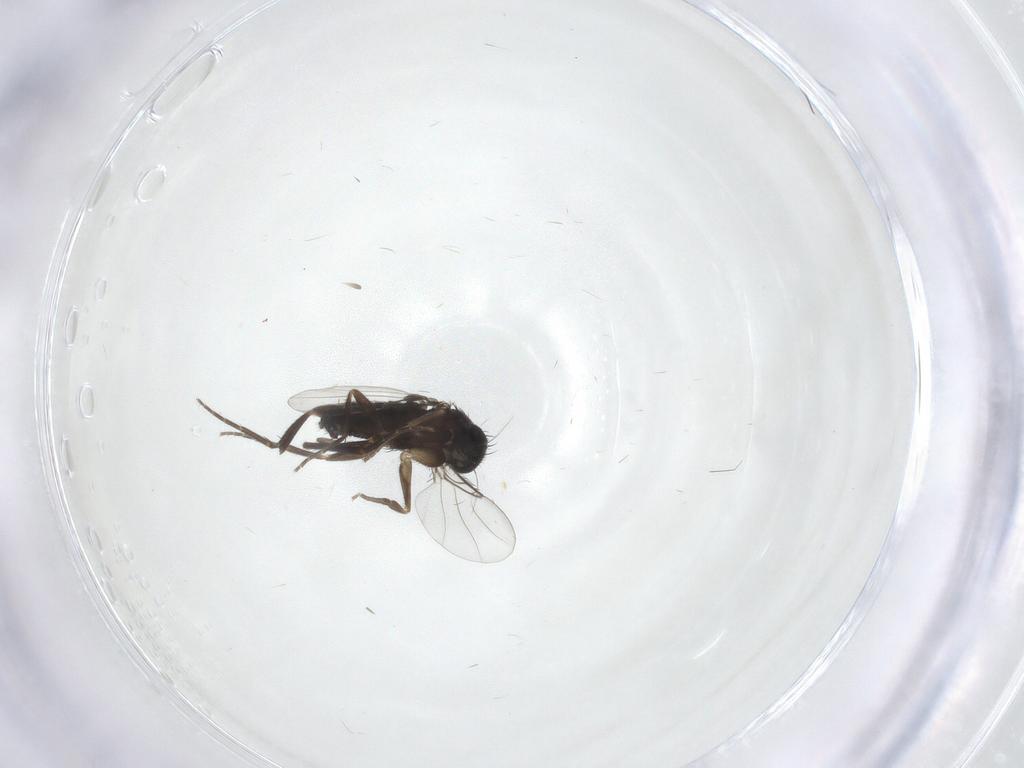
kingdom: Animalia
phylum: Arthropoda
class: Insecta
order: Diptera
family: Phoridae
